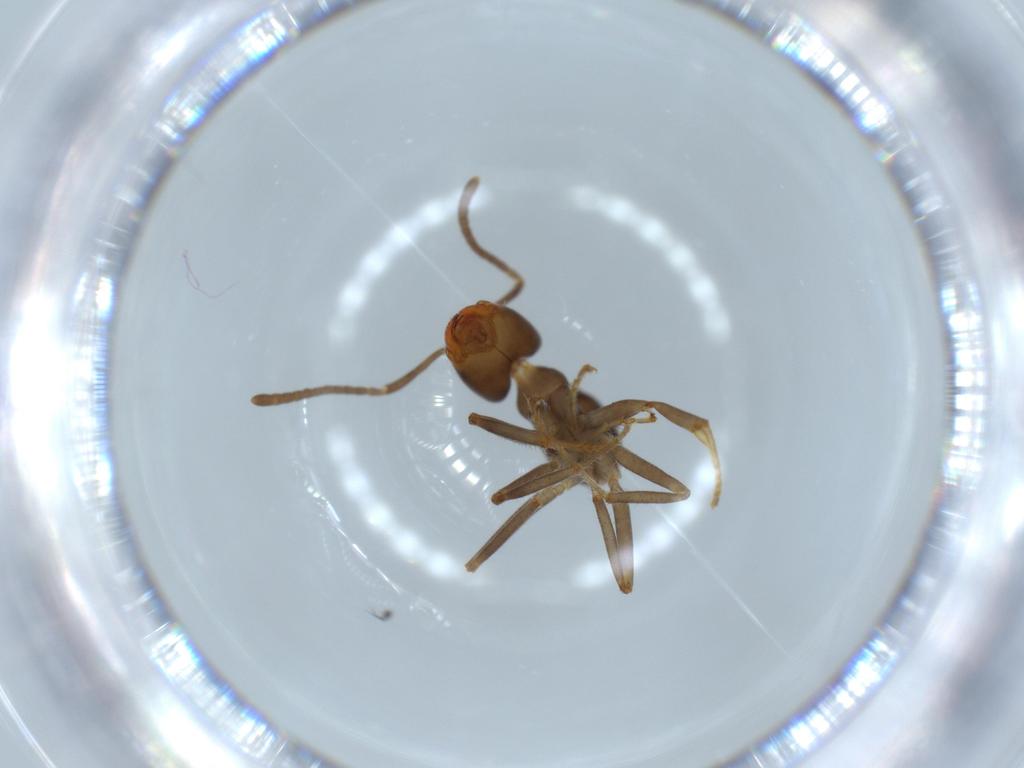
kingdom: Animalia
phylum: Arthropoda
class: Insecta
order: Hymenoptera
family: Formicidae
